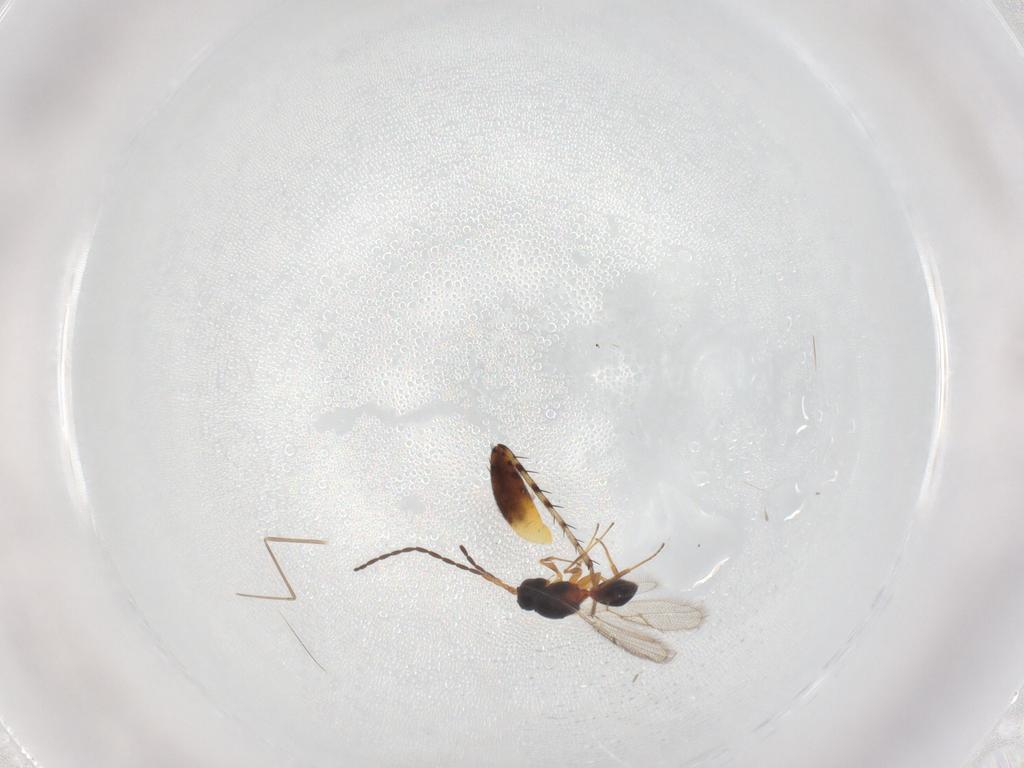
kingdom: Animalia
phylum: Arthropoda
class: Insecta
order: Hymenoptera
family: Figitidae
